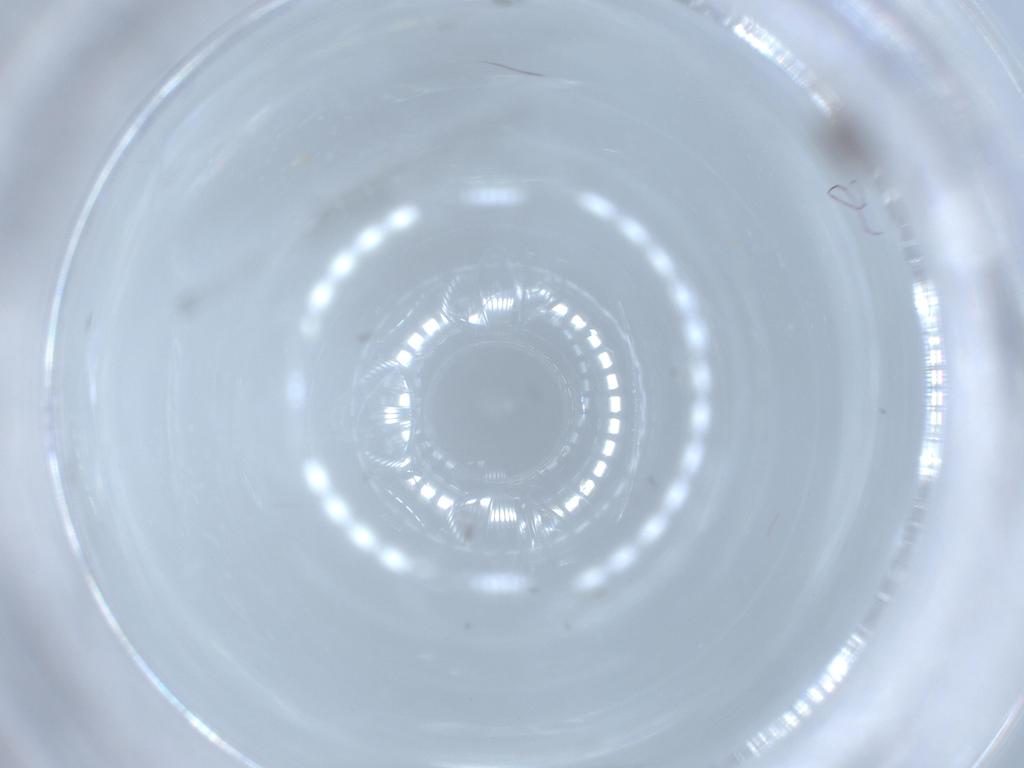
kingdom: Animalia
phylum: Arthropoda
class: Insecta
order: Diptera
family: Cecidomyiidae
